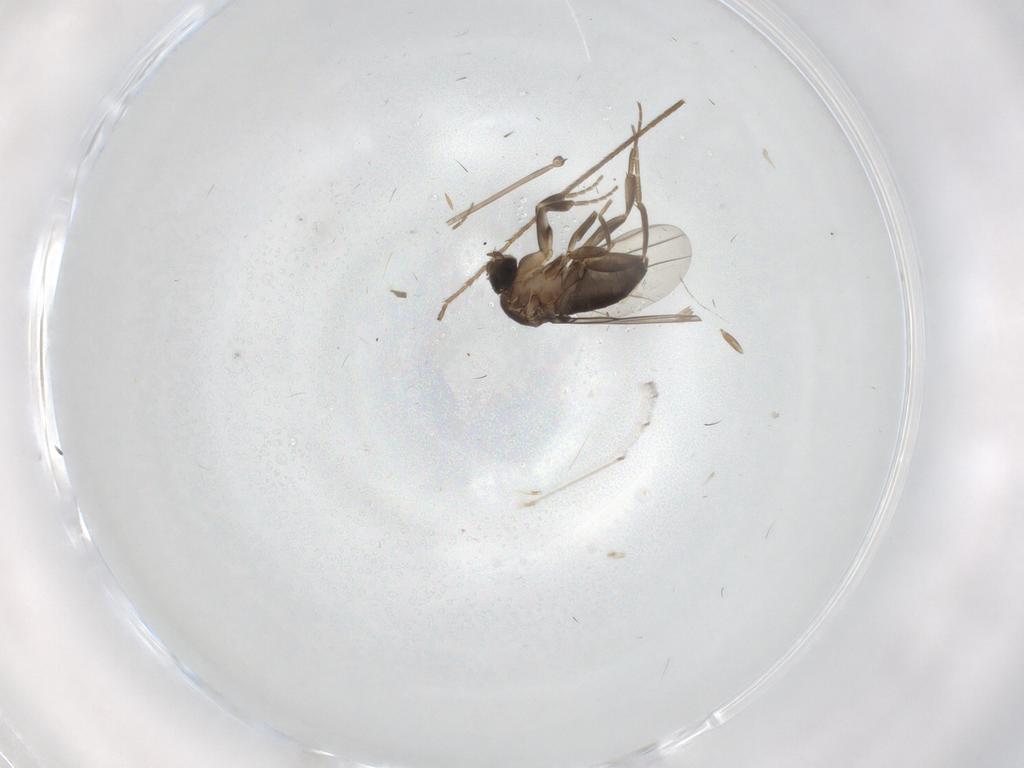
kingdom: Animalia
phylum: Arthropoda
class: Insecta
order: Diptera
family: Phoridae
